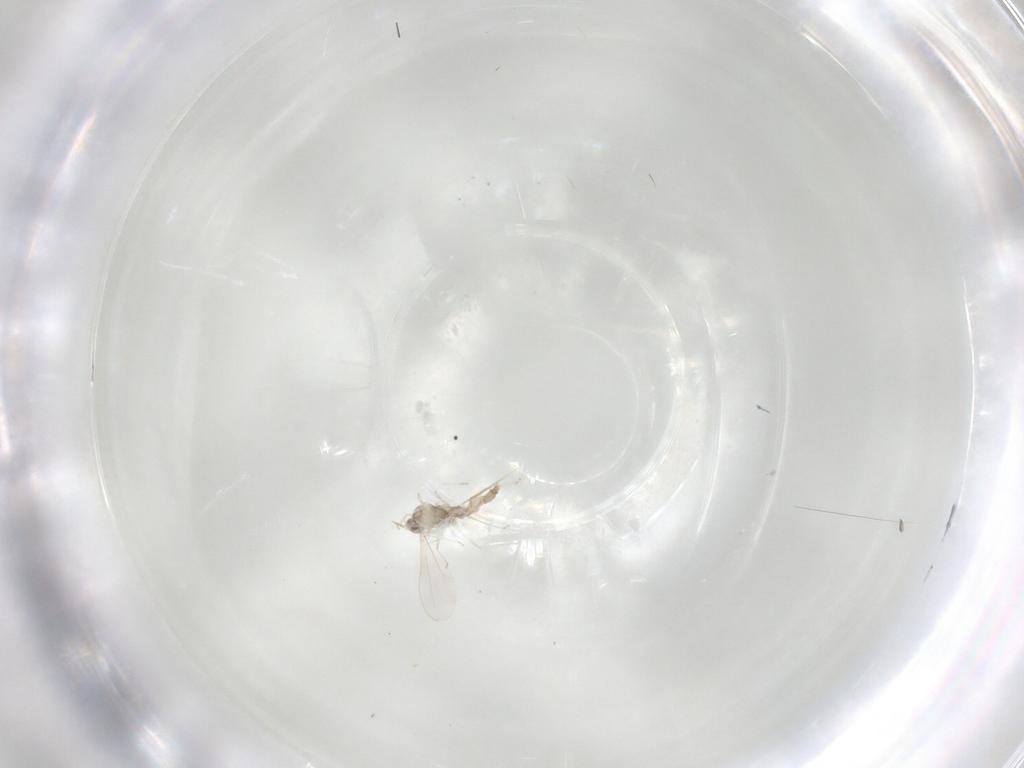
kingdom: Animalia
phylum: Arthropoda
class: Insecta
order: Diptera
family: Cecidomyiidae
